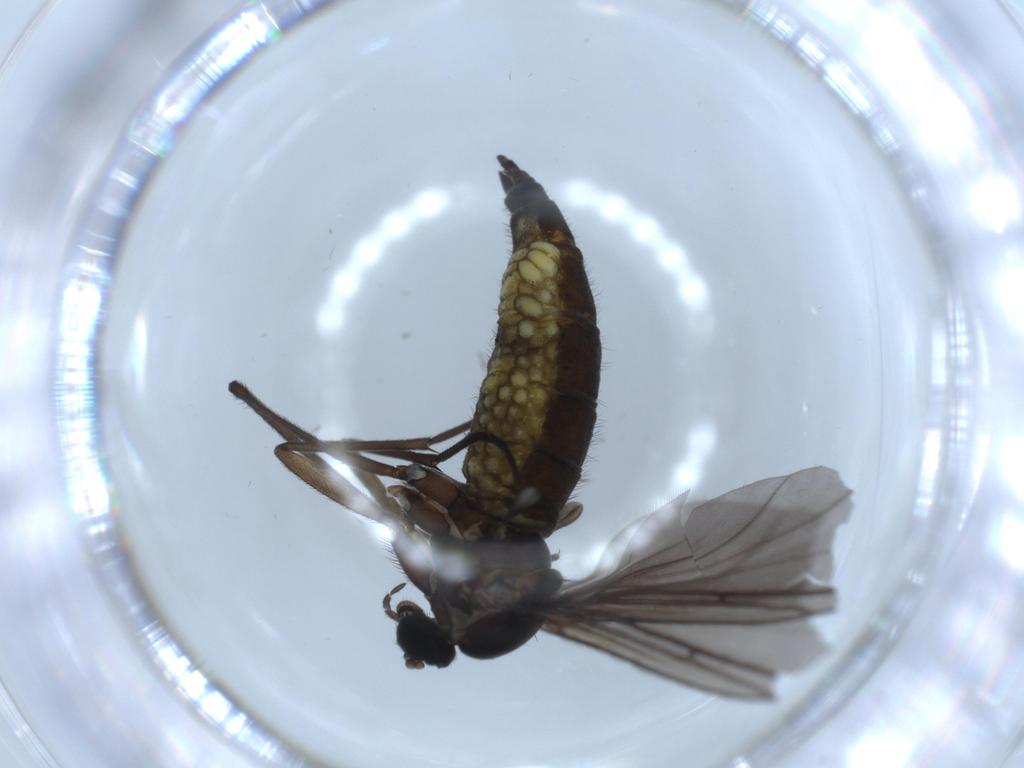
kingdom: Animalia
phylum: Arthropoda
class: Insecta
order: Diptera
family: Sciaridae
